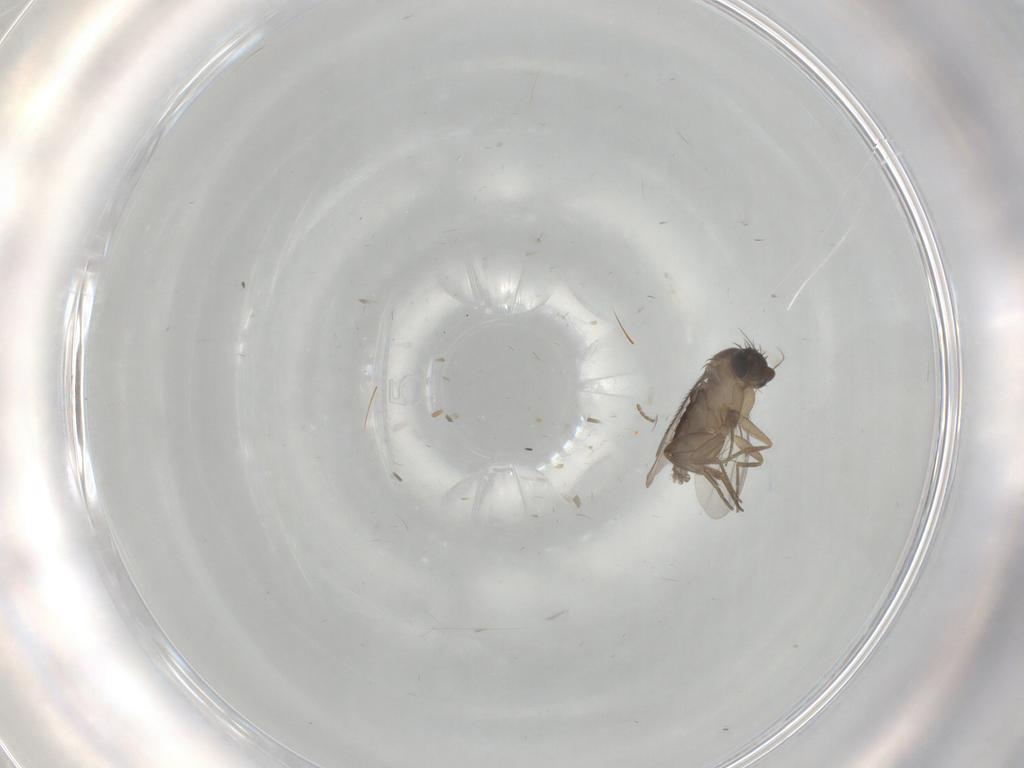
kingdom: Animalia
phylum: Arthropoda
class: Insecta
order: Diptera
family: Phoridae
